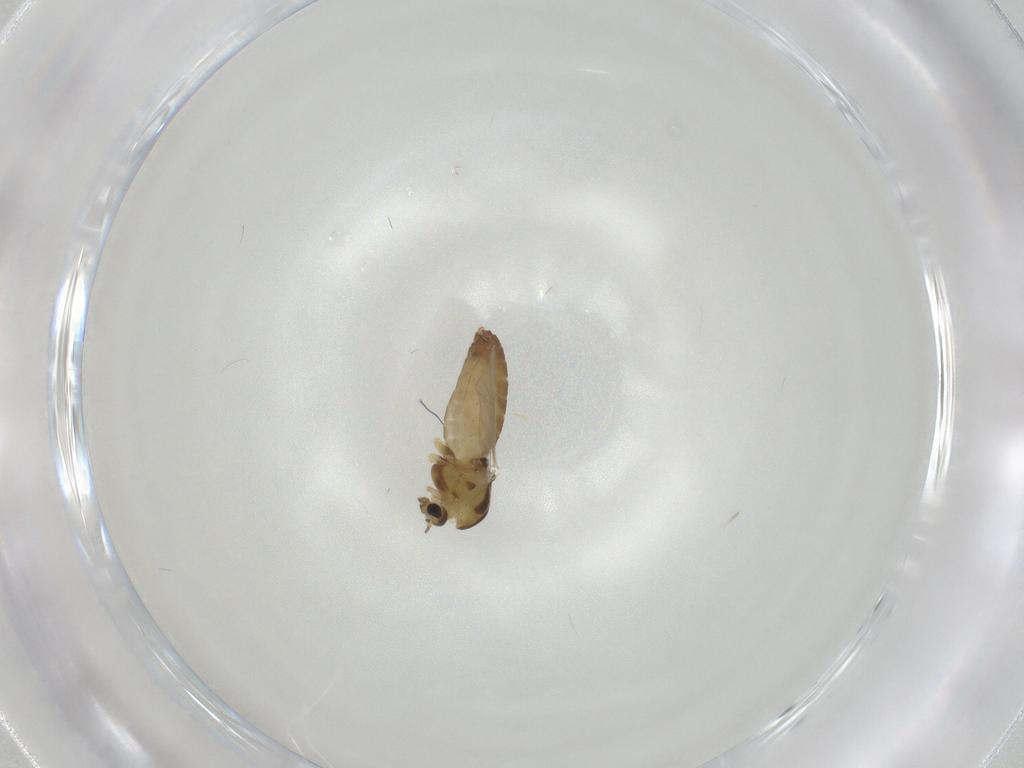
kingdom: Animalia
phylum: Arthropoda
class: Insecta
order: Diptera
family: Chironomidae
